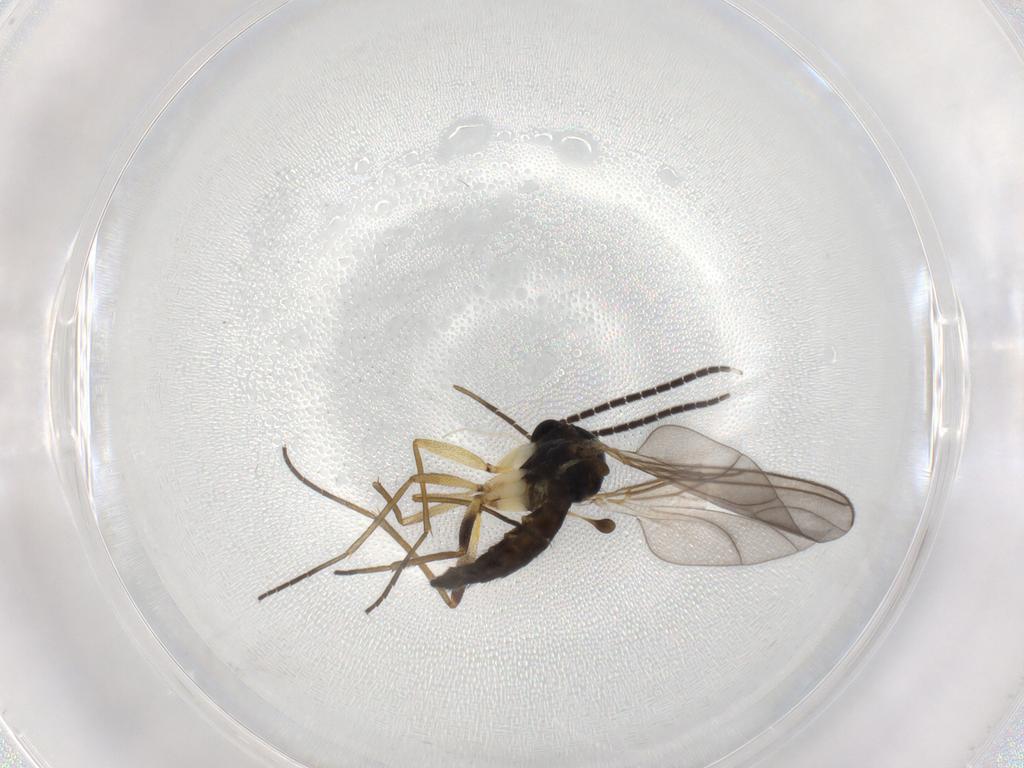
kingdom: Animalia
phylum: Arthropoda
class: Insecta
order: Diptera
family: Sciaridae
